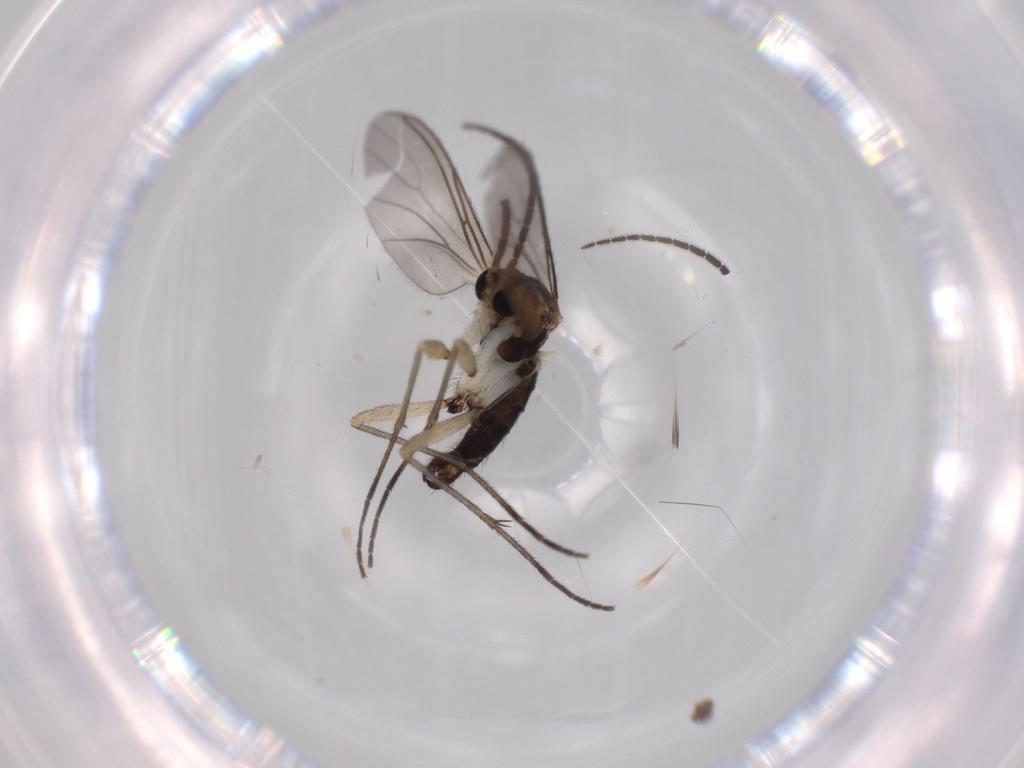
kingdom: Animalia
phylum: Arthropoda
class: Insecta
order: Diptera
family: Sciaridae
